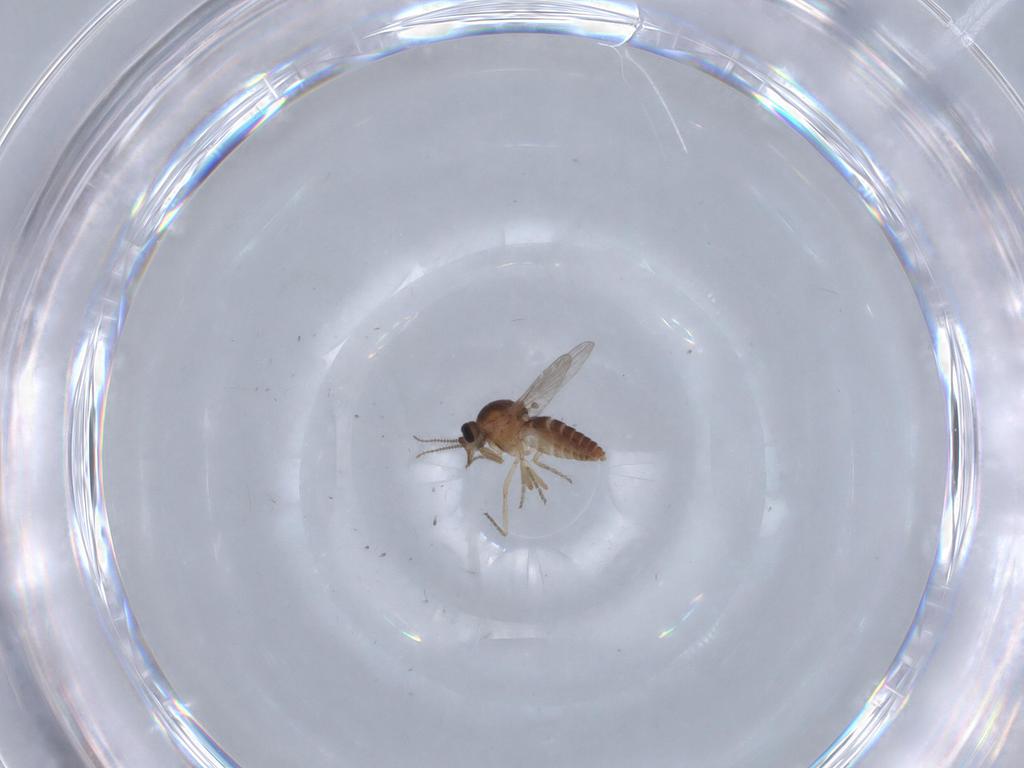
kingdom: Animalia
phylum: Arthropoda
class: Insecta
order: Diptera
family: Ceratopogonidae
